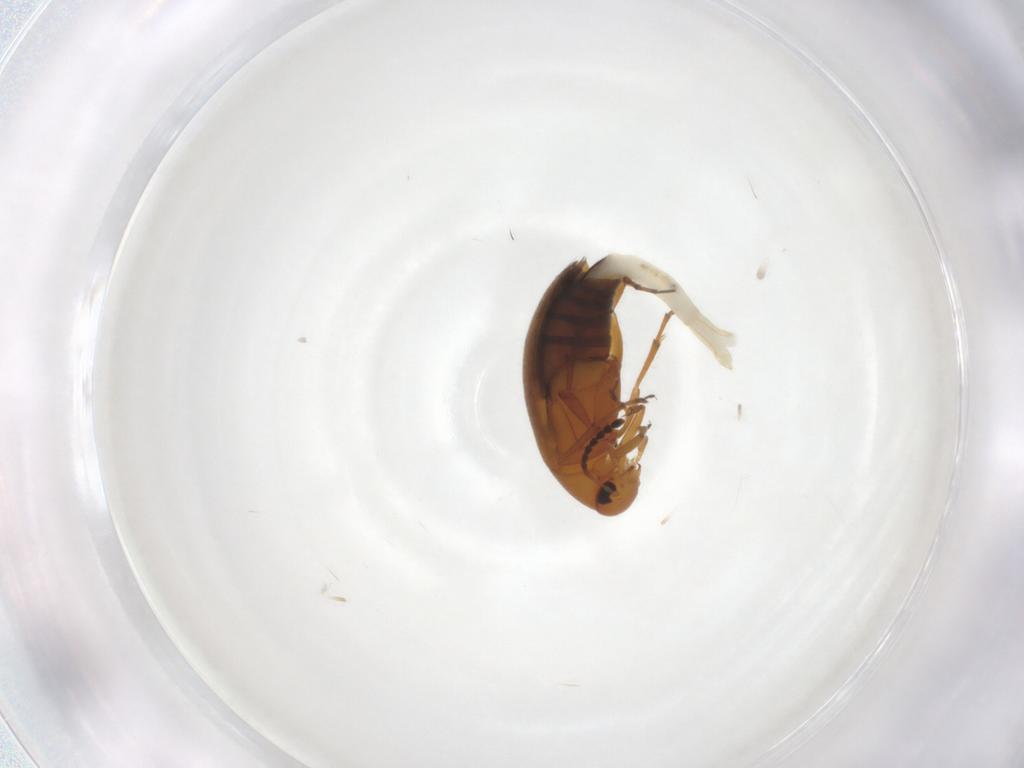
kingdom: Animalia
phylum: Arthropoda
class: Insecta
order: Coleoptera
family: Scraptiidae
